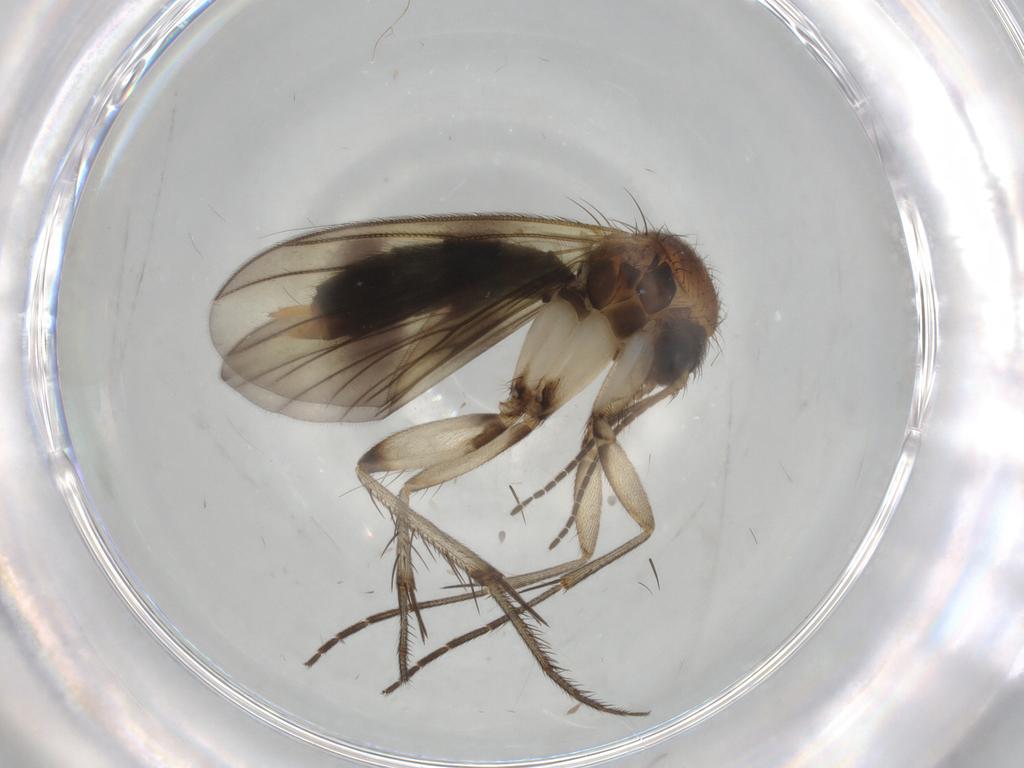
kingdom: Animalia
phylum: Arthropoda
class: Insecta
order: Diptera
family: Mycetophilidae
